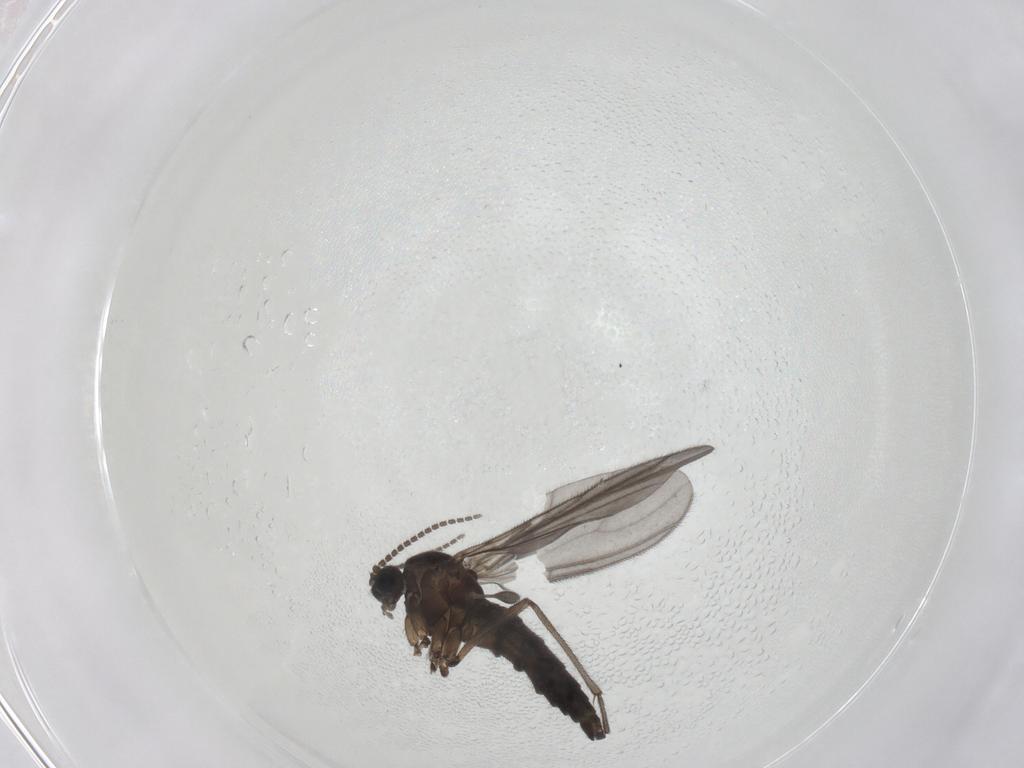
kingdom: Animalia
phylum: Arthropoda
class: Insecta
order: Diptera
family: Sciaridae
